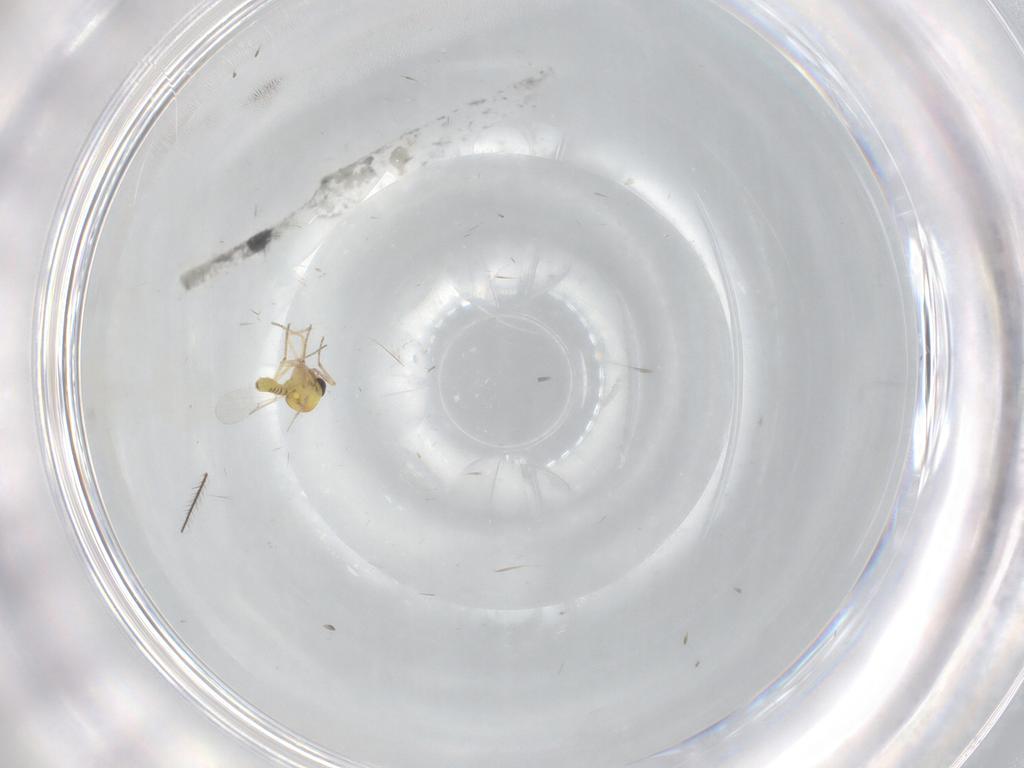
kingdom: Animalia
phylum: Arthropoda
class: Insecta
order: Diptera
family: Ceratopogonidae
